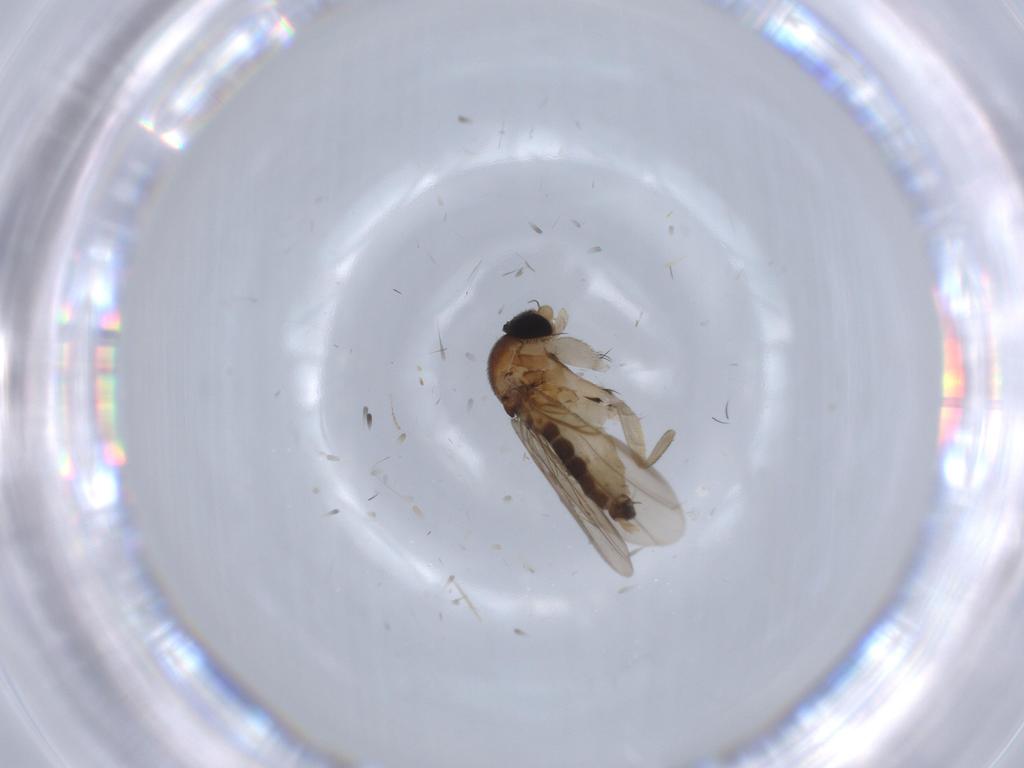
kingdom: Animalia
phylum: Arthropoda
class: Insecta
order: Diptera
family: Phoridae
